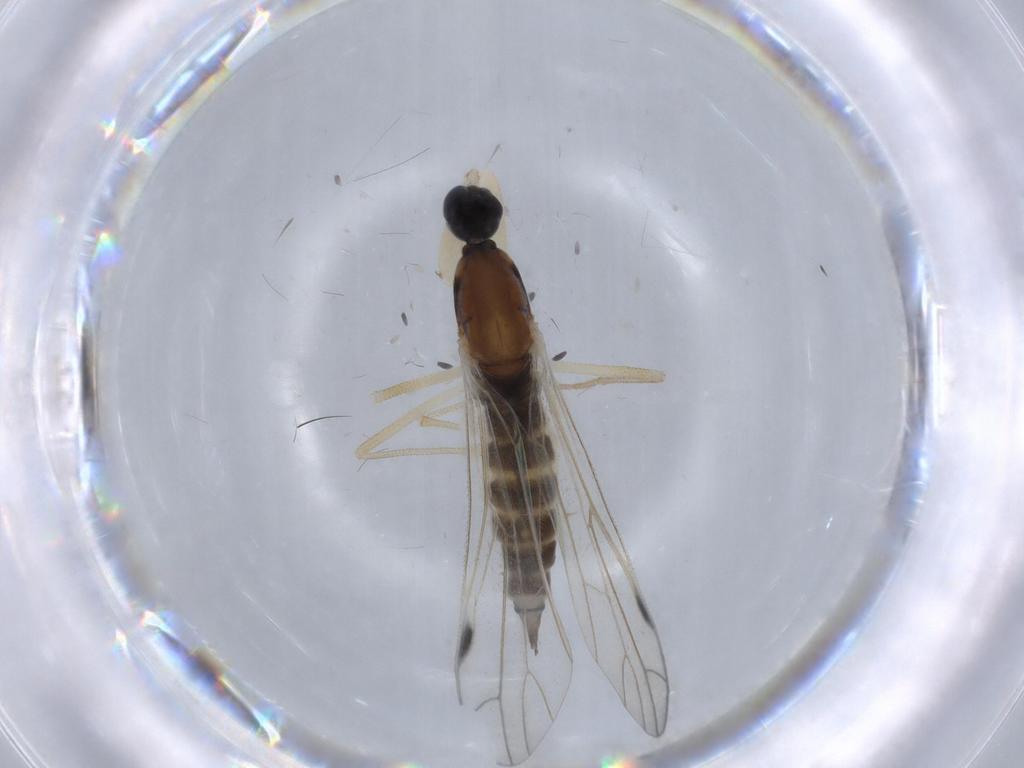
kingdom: Animalia
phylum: Arthropoda
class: Insecta
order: Diptera
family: Empididae
